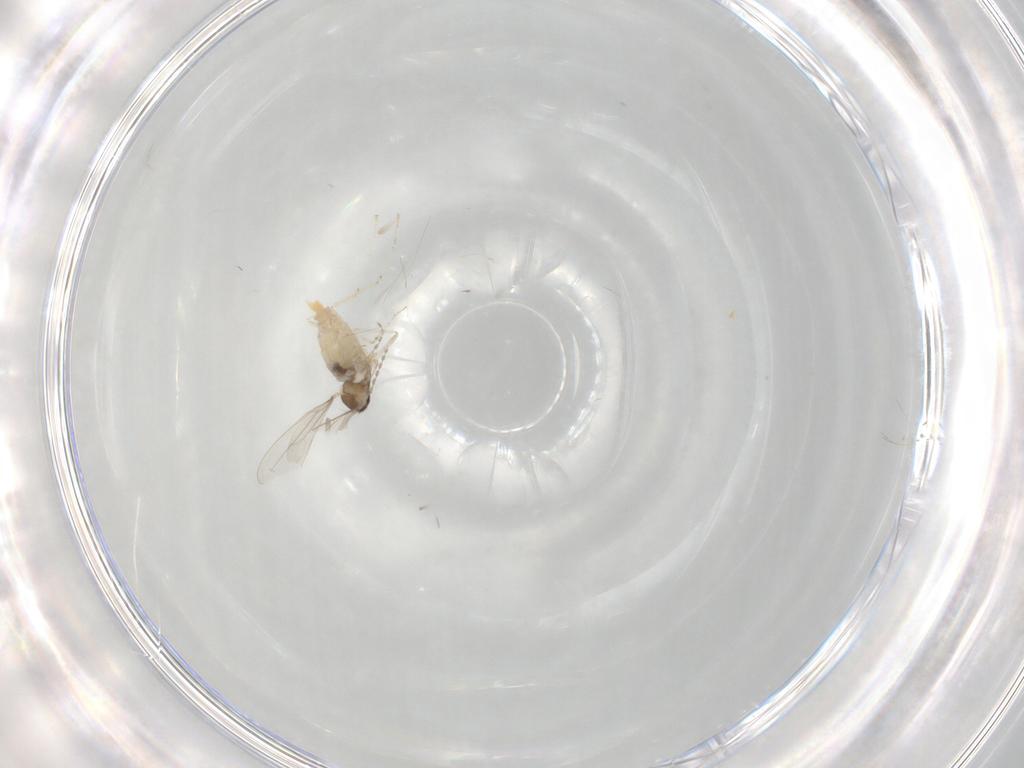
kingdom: Animalia
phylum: Arthropoda
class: Insecta
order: Diptera
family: Cecidomyiidae
